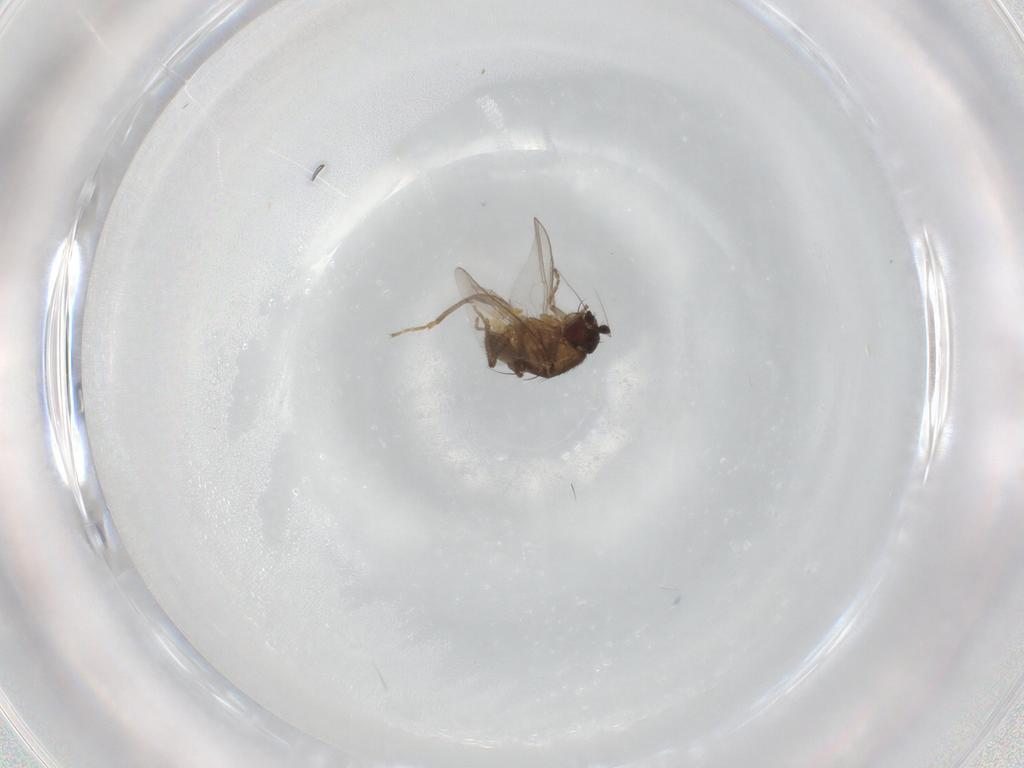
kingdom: Animalia
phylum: Arthropoda
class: Insecta
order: Diptera
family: Sphaeroceridae
